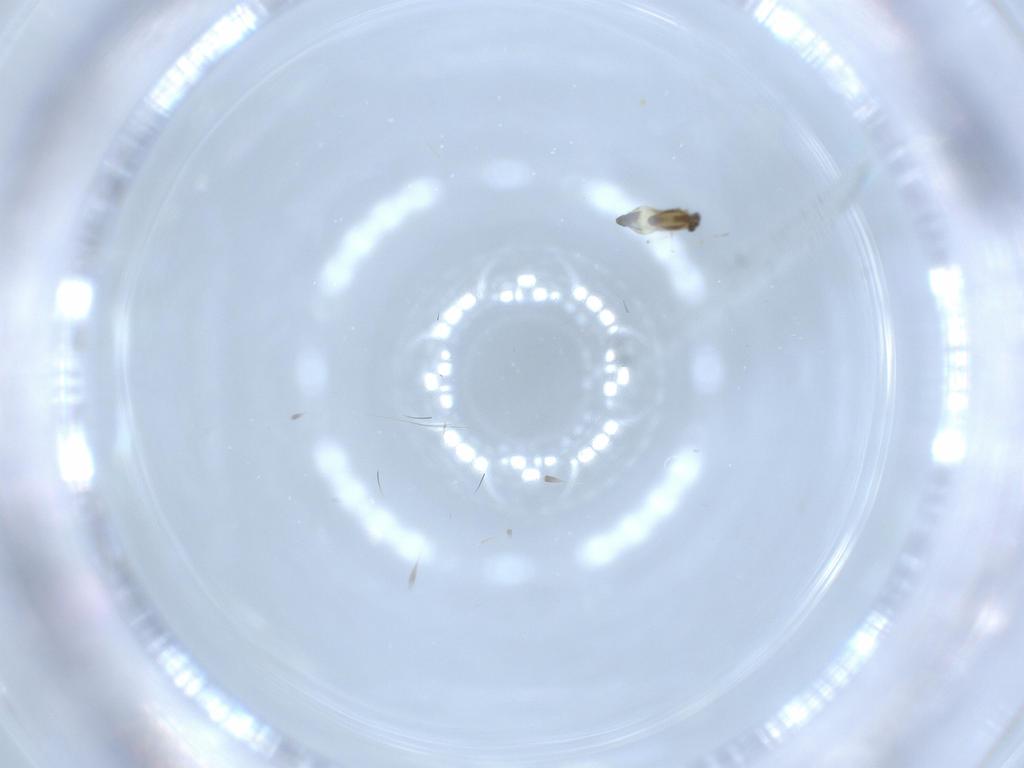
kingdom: Animalia
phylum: Arthropoda
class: Insecta
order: Diptera
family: Chironomidae
